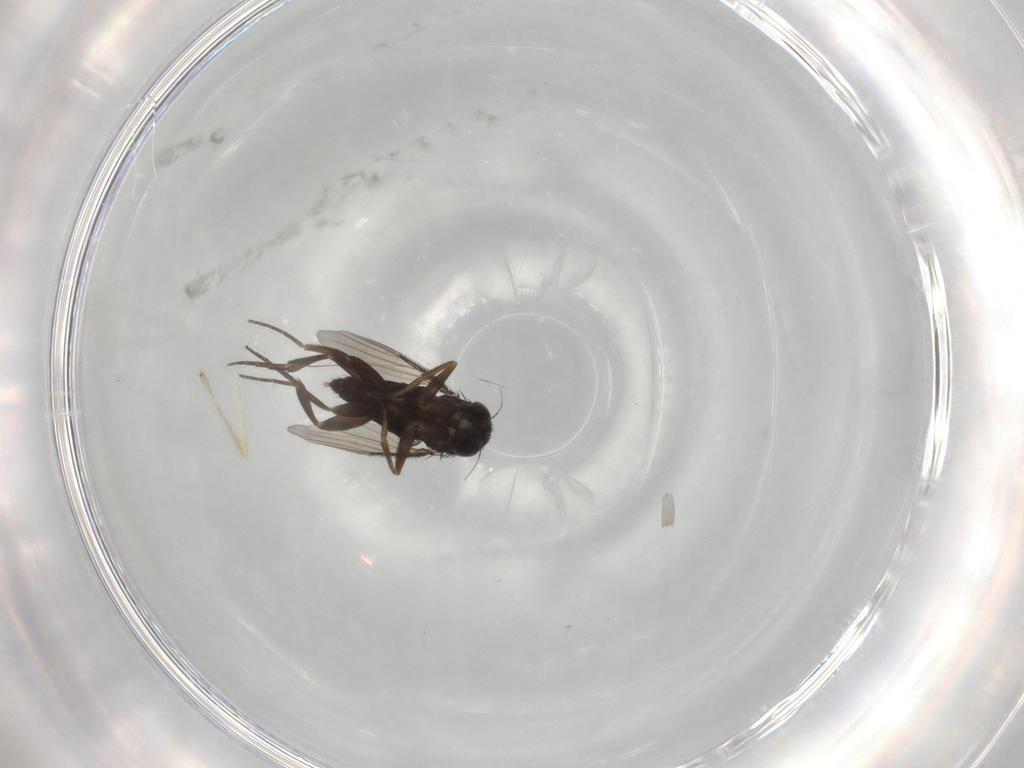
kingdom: Animalia
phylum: Arthropoda
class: Insecta
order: Diptera
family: Chironomidae
